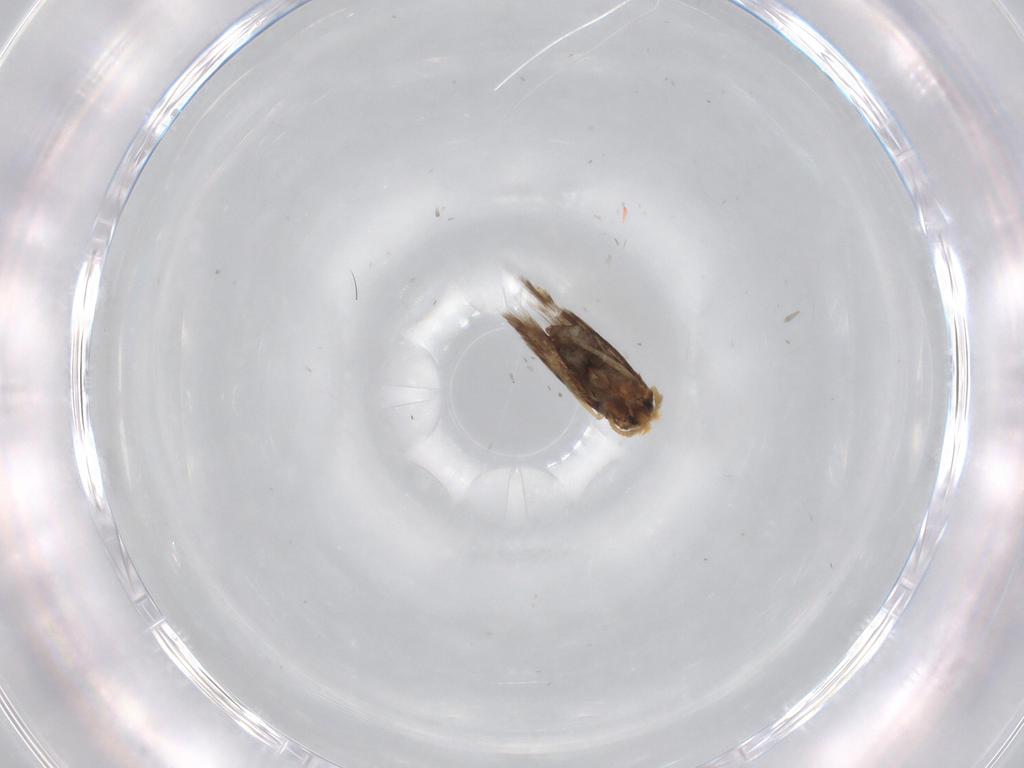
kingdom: Animalia
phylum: Arthropoda
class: Insecta
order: Lepidoptera
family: Nepticulidae
